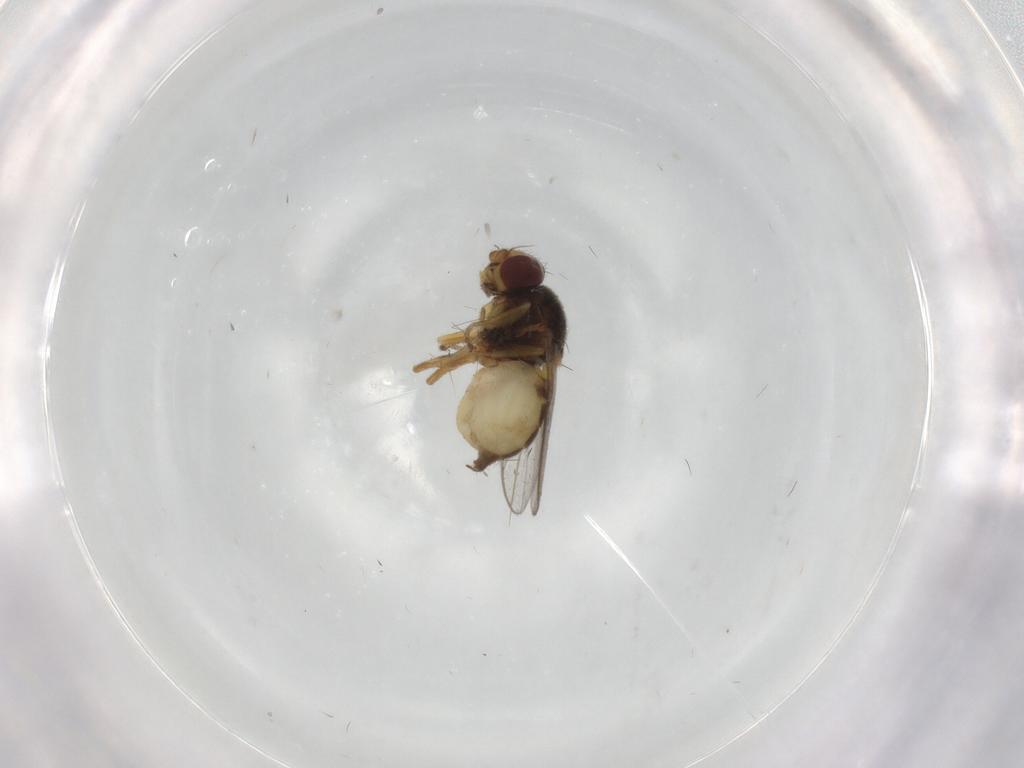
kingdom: Animalia
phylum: Arthropoda
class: Insecta
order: Diptera
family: Chloropidae
